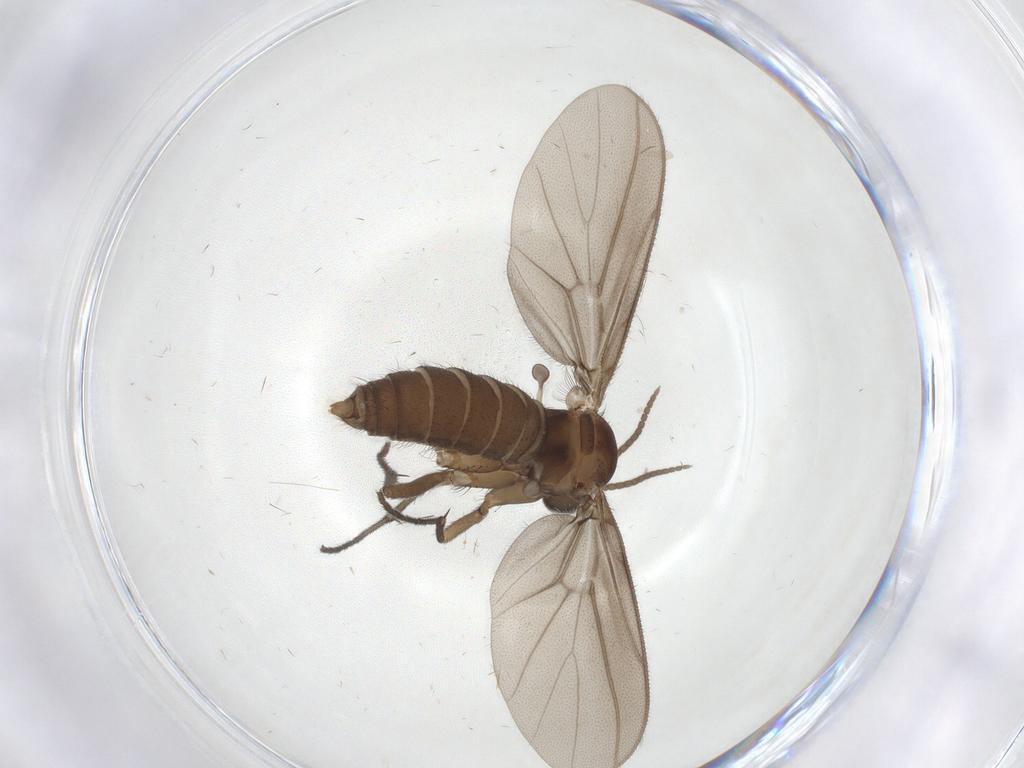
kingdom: Animalia
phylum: Arthropoda
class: Insecta
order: Diptera
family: Diadocidiidae
